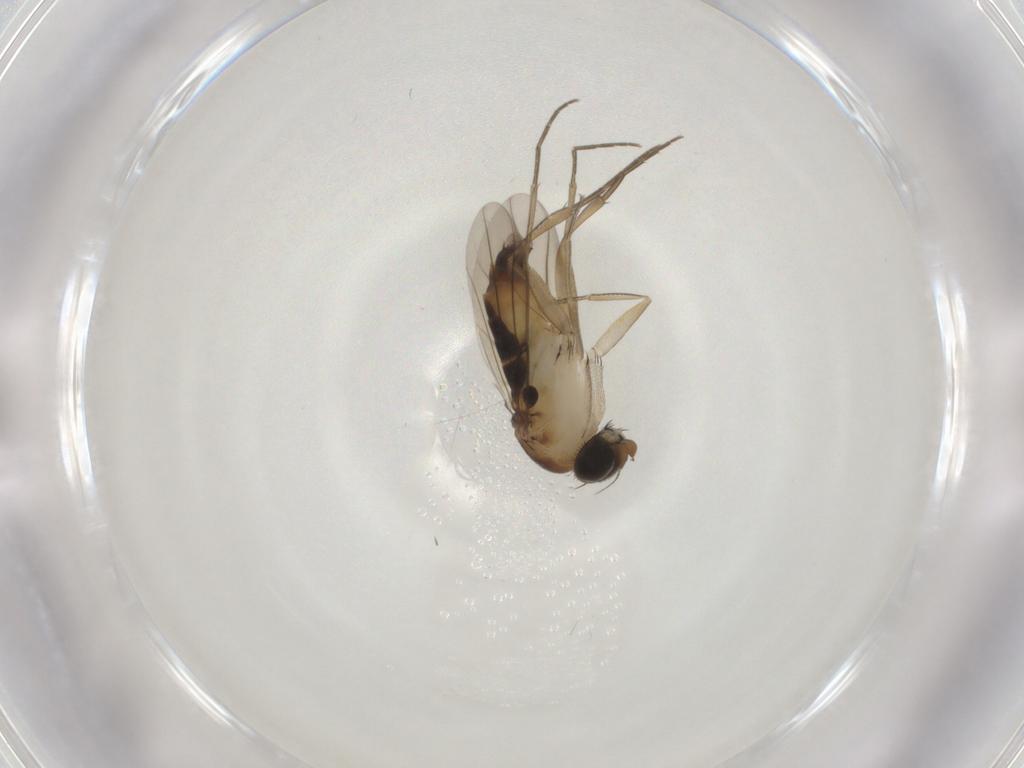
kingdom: Animalia
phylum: Arthropoda
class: Insecta
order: Diptera
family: Phoridae
